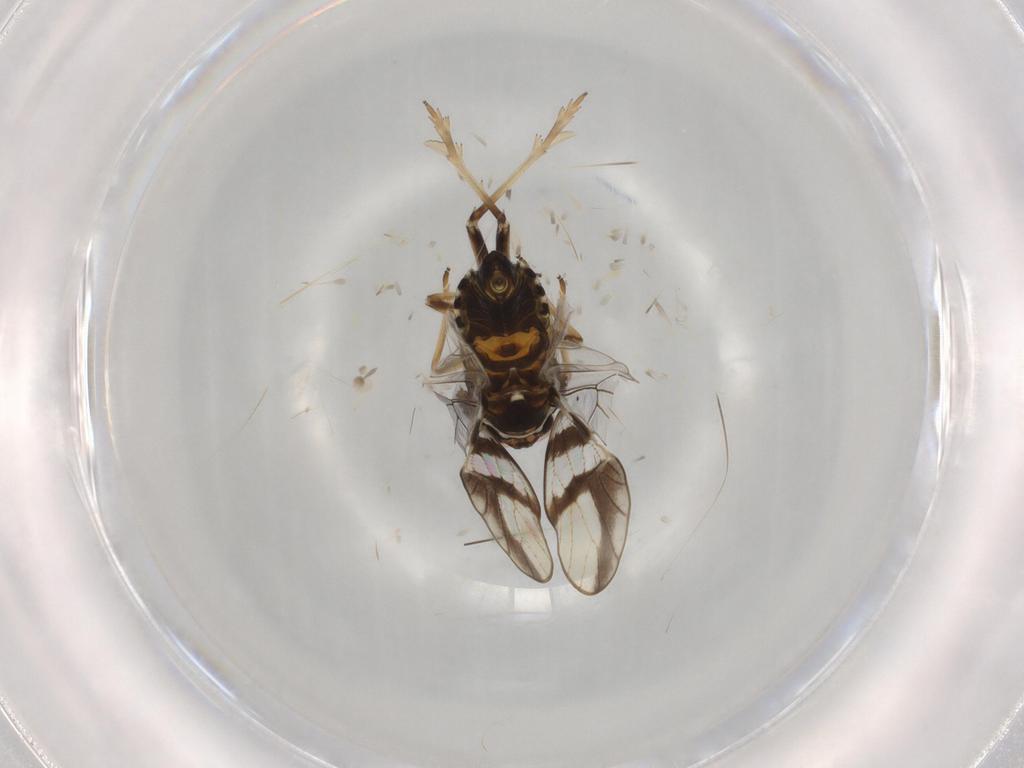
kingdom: Animalia
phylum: Arthropoda
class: Insecta
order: Hemiptera
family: Delphacidae
